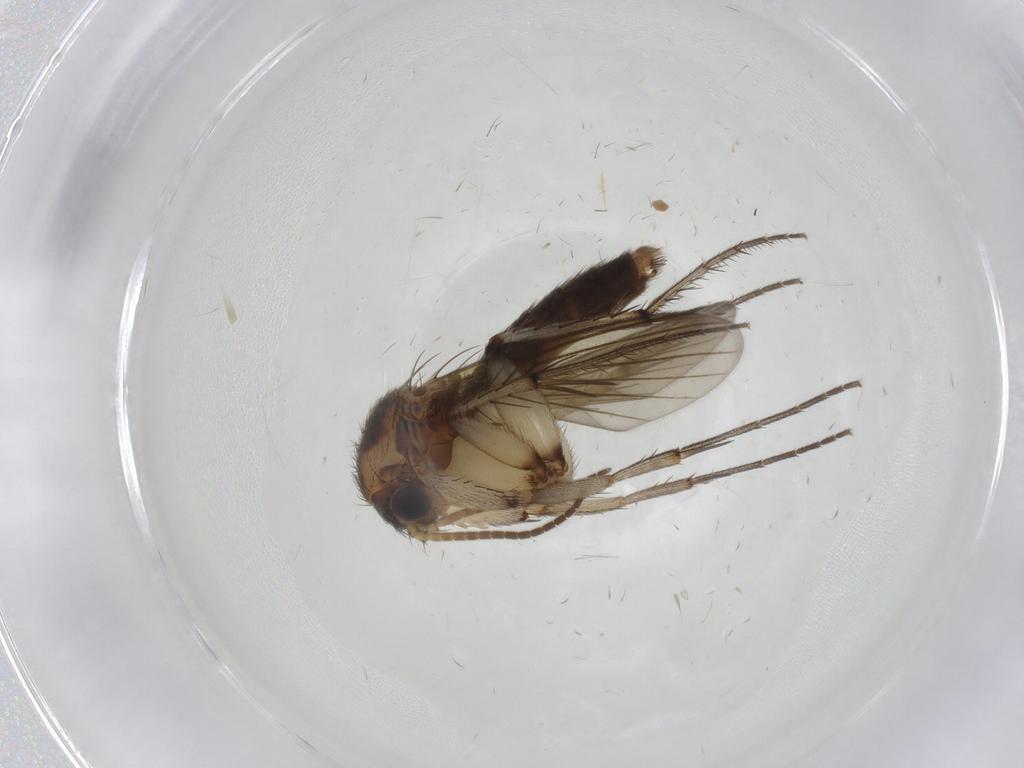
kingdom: Animalia
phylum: Arthropoda
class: Insecta
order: Diptera
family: Mycetophilidae
